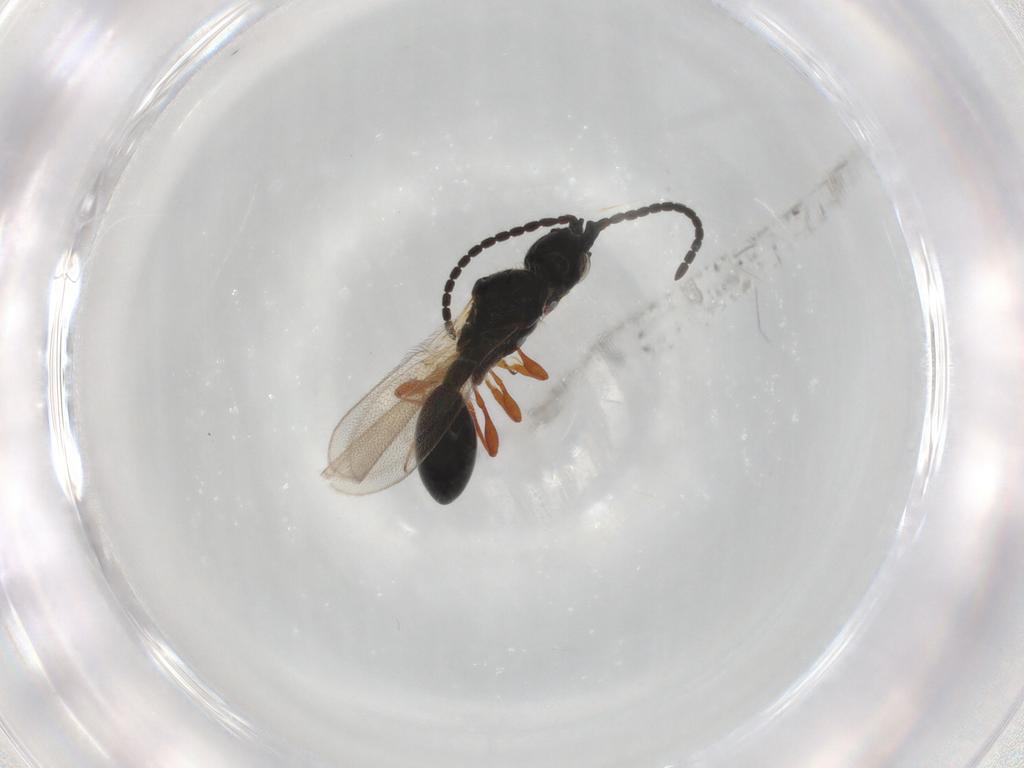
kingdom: Animalia
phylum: Arthropoda
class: Insecta
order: Hymenoptera
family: Diapriidae
